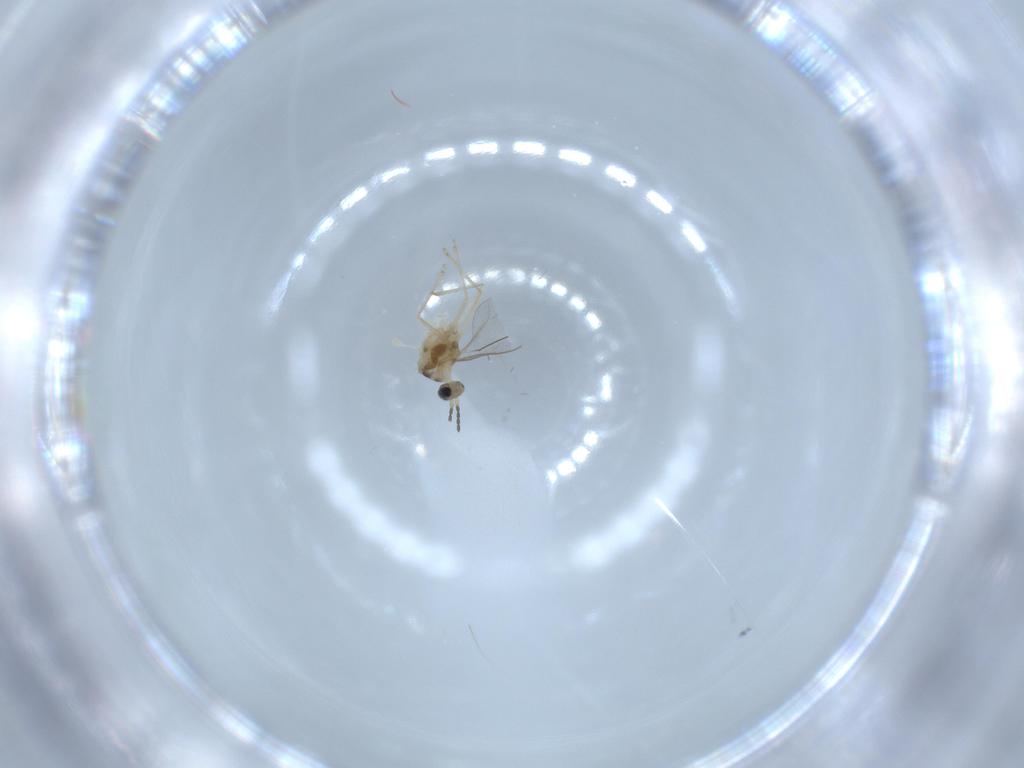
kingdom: Animalia
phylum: Arthropoda
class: Insecta
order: Diptera
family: Cecidomyiidae
